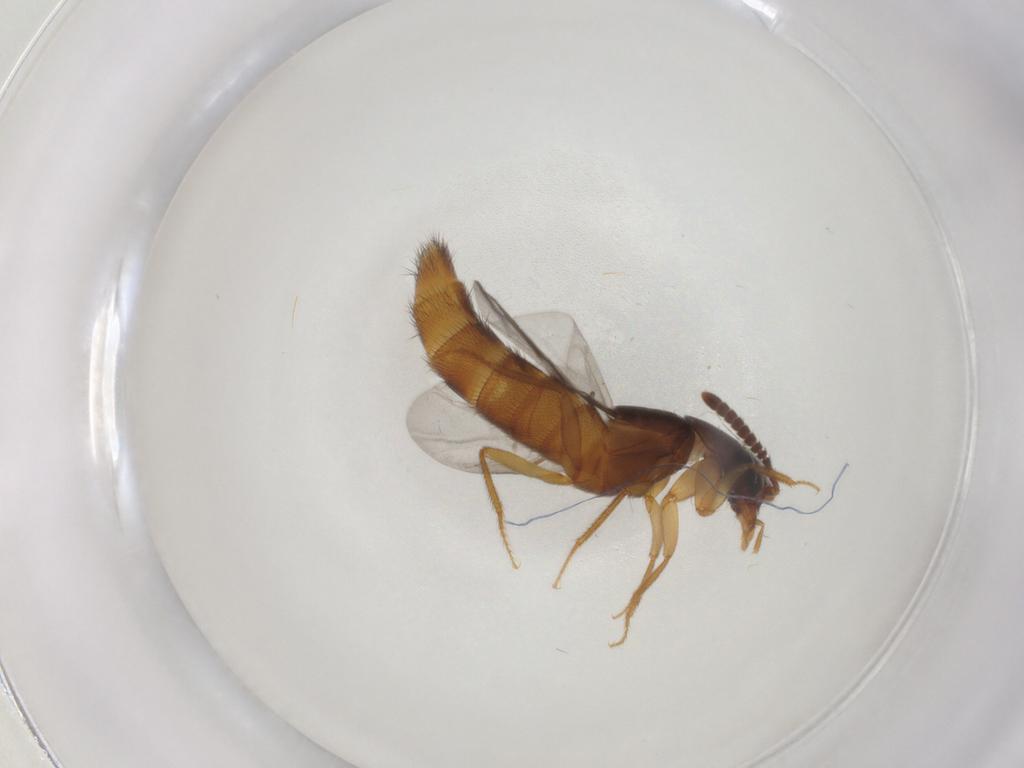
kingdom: Animalia
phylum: Arthropoda
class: Insecta
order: Coleoptera
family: Staphylinidae
